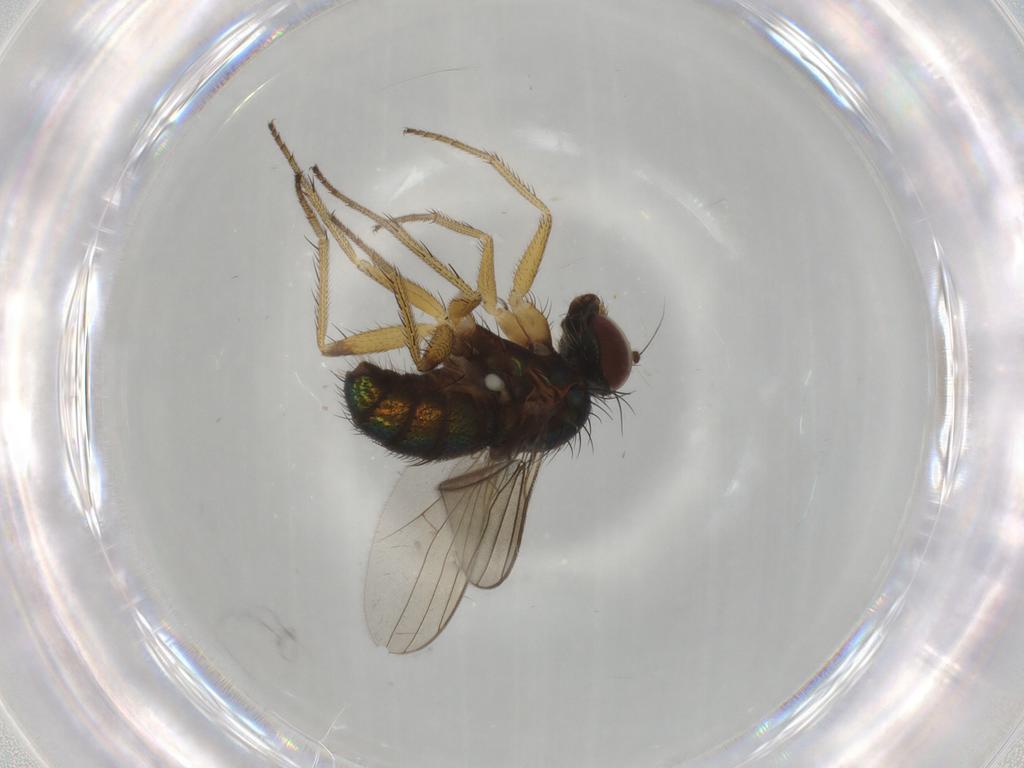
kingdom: Animalia
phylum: Arthropoda
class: Insecta
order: Diptera
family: Dolichopodidae
